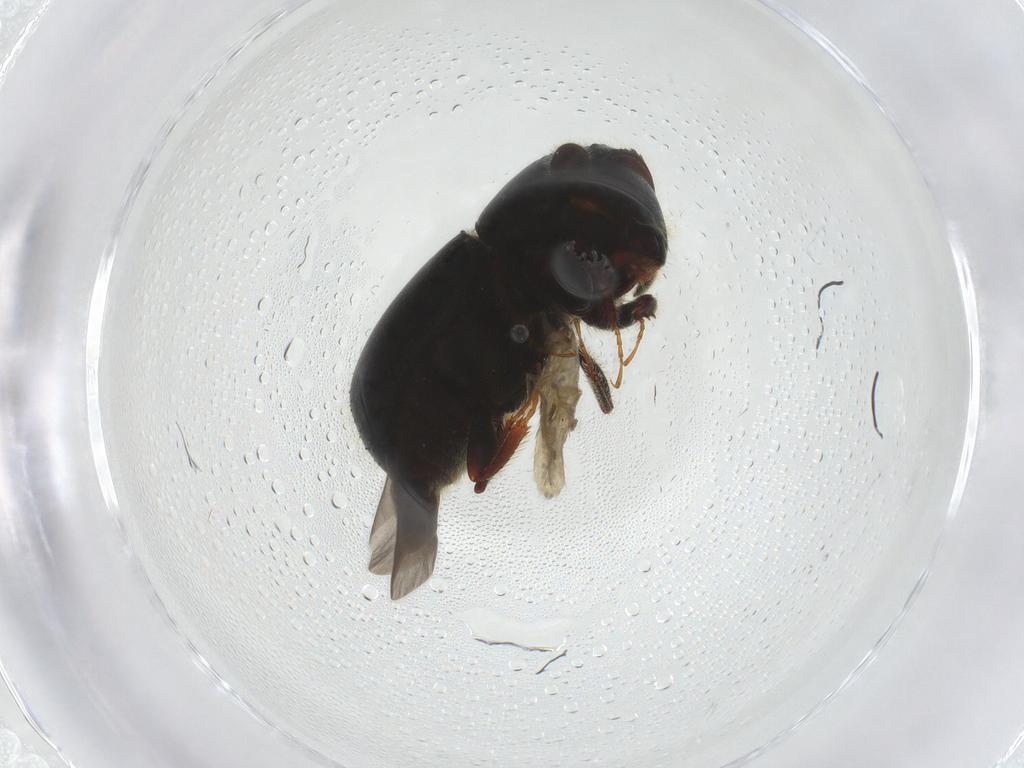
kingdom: Animalia
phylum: Arthropoda
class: Insecta
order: Coleoptera
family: Curculionidae
